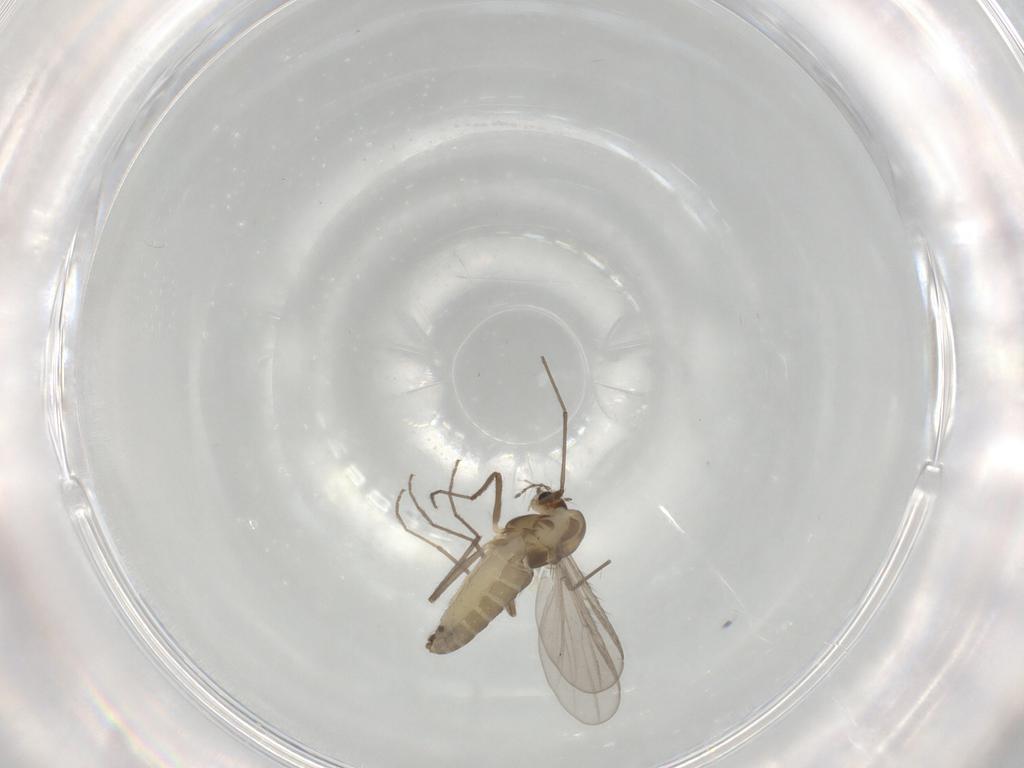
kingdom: Animalia
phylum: Arthropoda
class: Insecta
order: Diptera
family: Chironomidae
